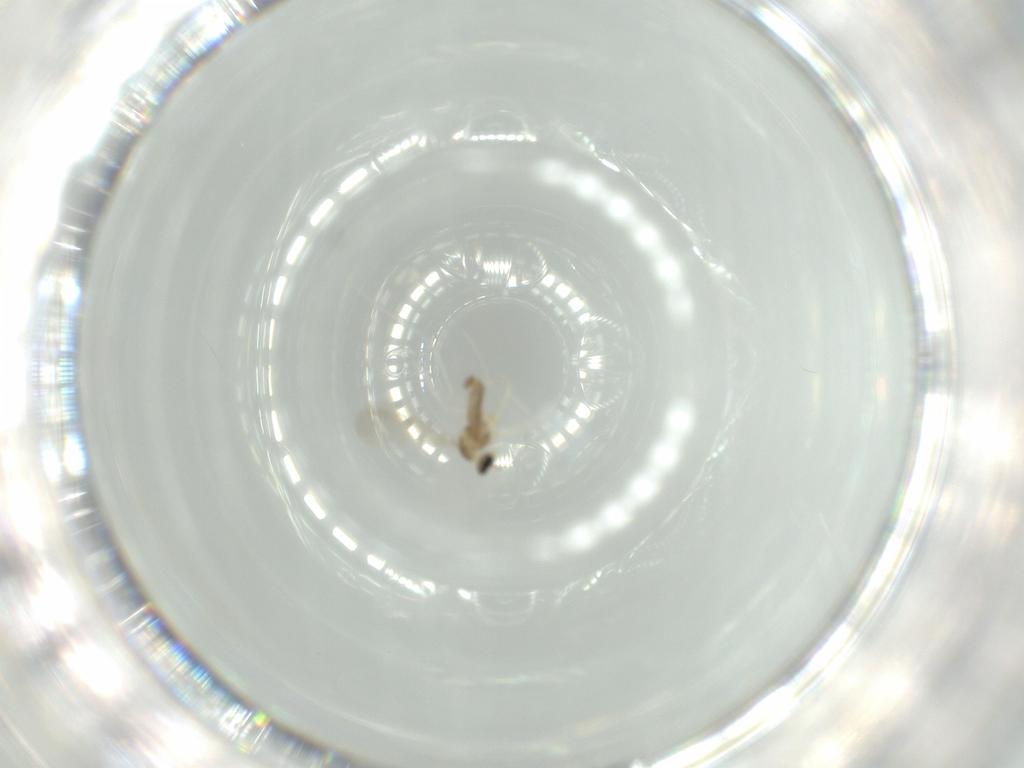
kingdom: Animalia
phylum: Arthropoda
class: Insecta
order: Diptera
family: Cecidomyiidae
